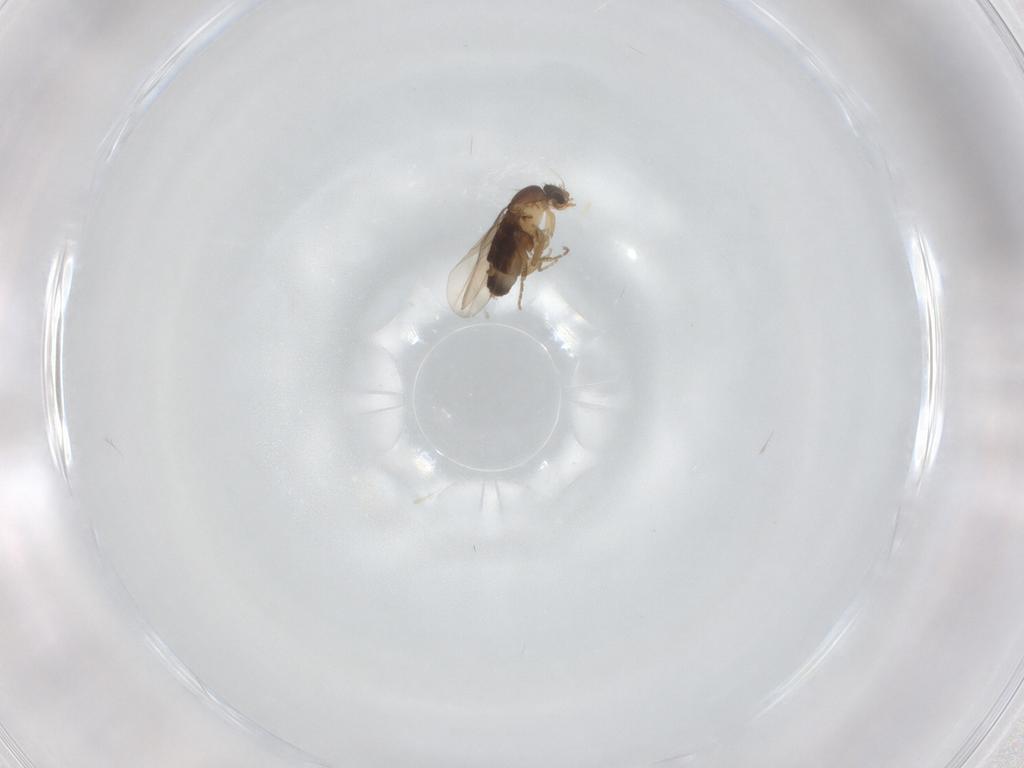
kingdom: Animalia
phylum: Arthropoda
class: Insecta
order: Diptera
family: Phoridae
